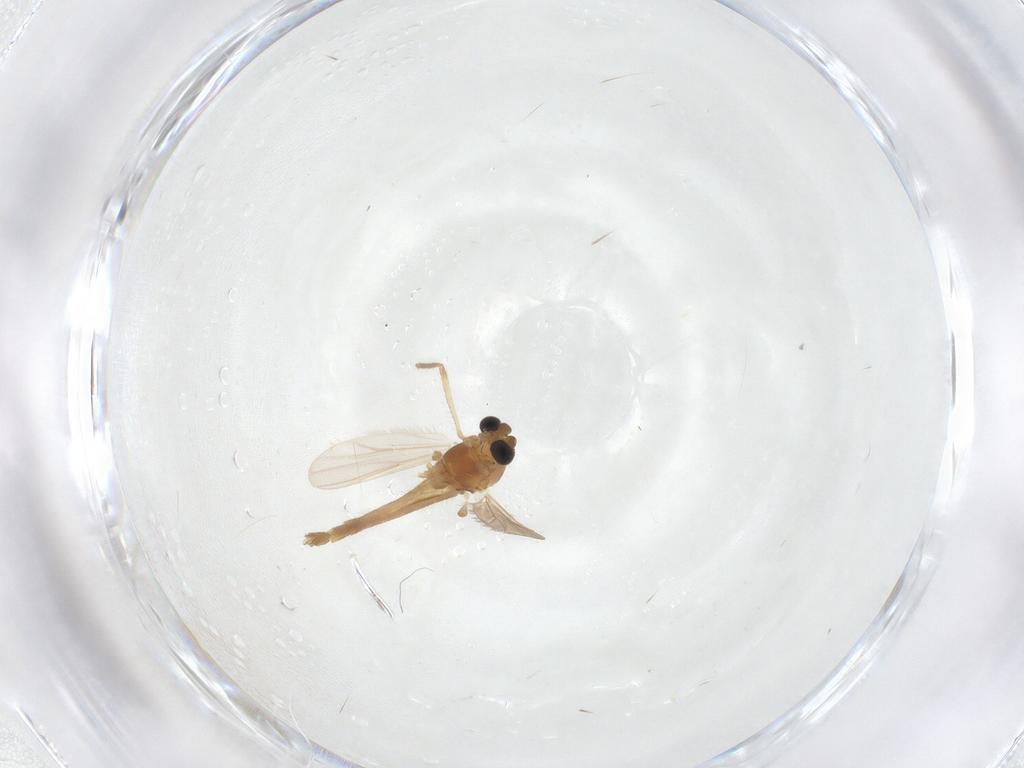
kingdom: Animalia
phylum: Arthropoda
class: Insecta
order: Diptera
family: Chironomidae
